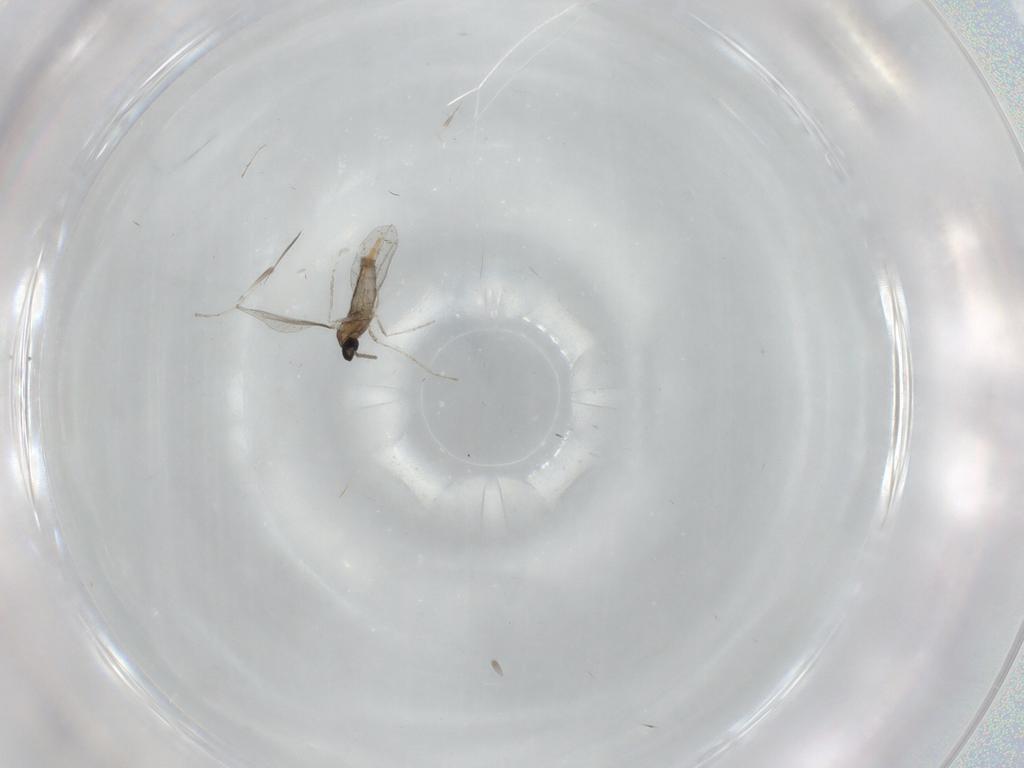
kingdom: Animalia
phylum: Arthropoda
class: Insecta
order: Diptera
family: Cecidomyiidae
